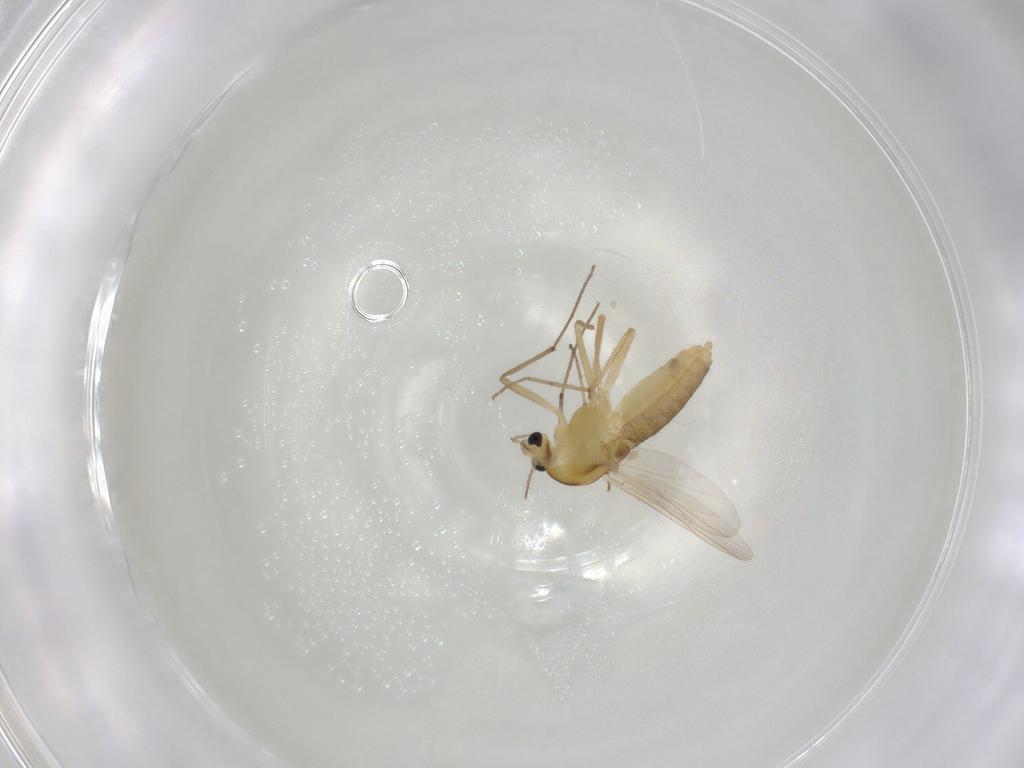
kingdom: Animalia
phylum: Arthropoda
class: Insecta
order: Diptera
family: Chironomidae
